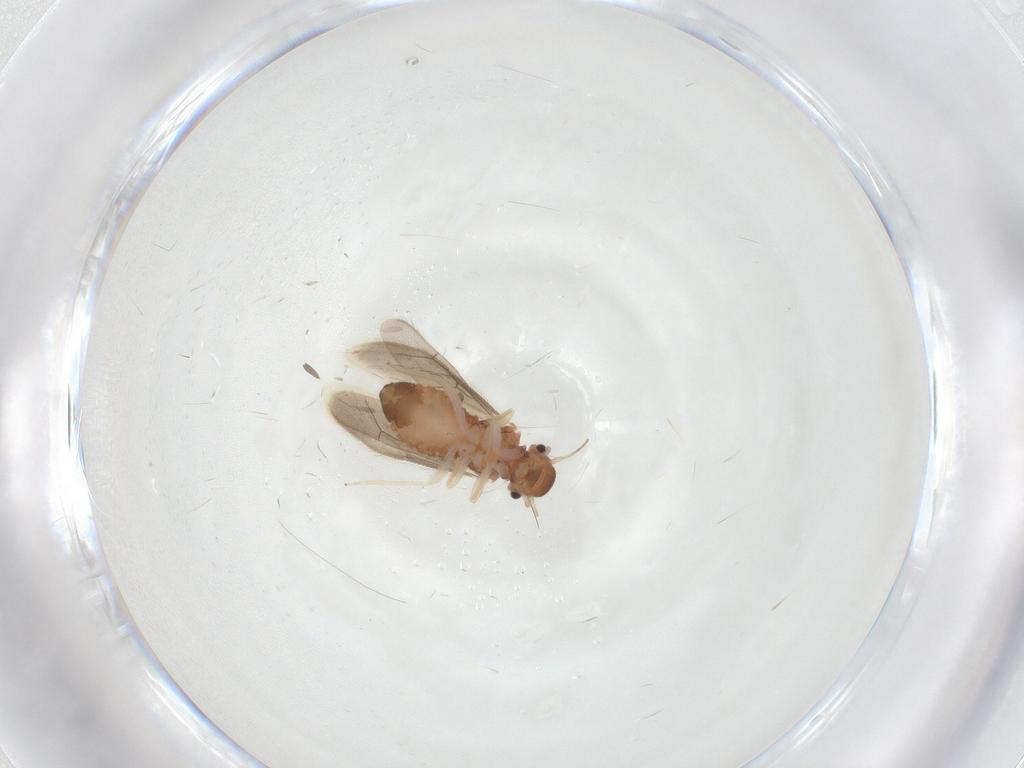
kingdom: Animalia
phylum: Arthropoda
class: Insecta
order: Psocodea
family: Archipsocidae
